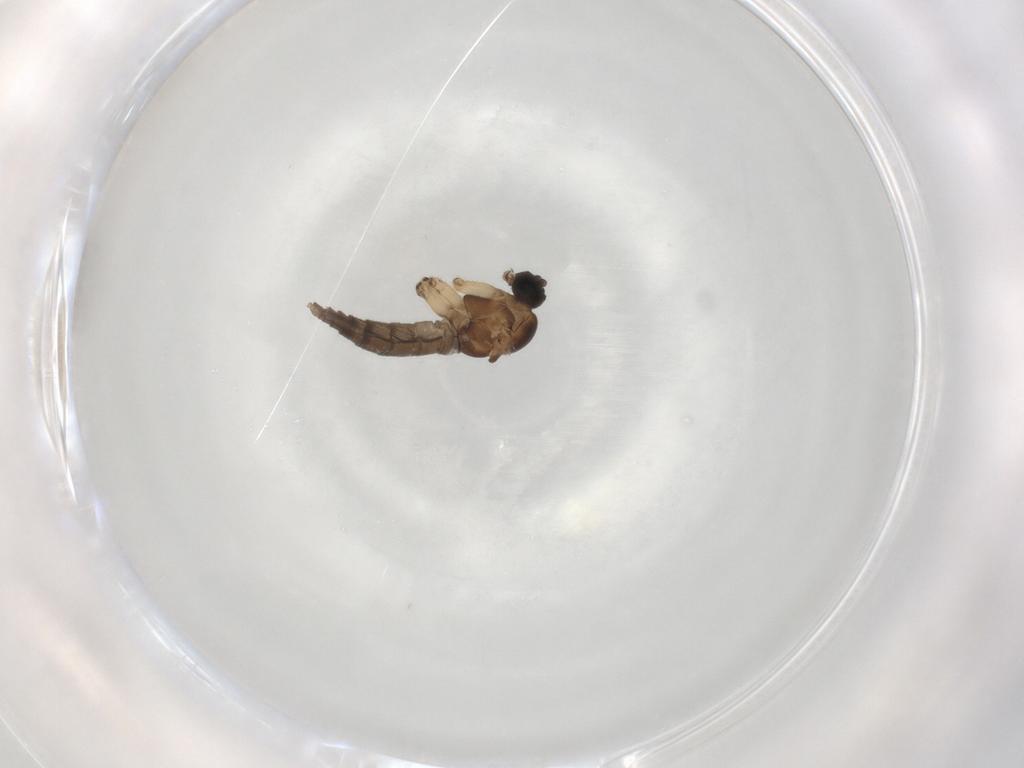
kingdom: Animalia
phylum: Arthropoda
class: Insecta
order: Diptera
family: Sciaridae
